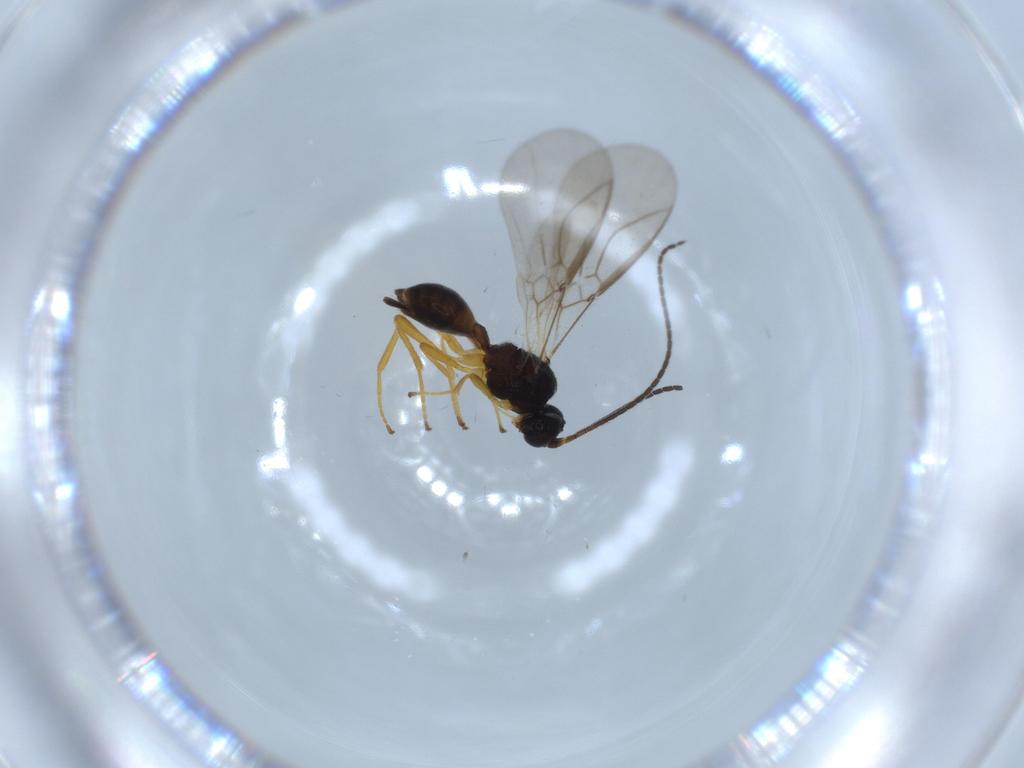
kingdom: Animalia
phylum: Arthropoda
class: Insecta
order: Hymenoptera
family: Braconidae
